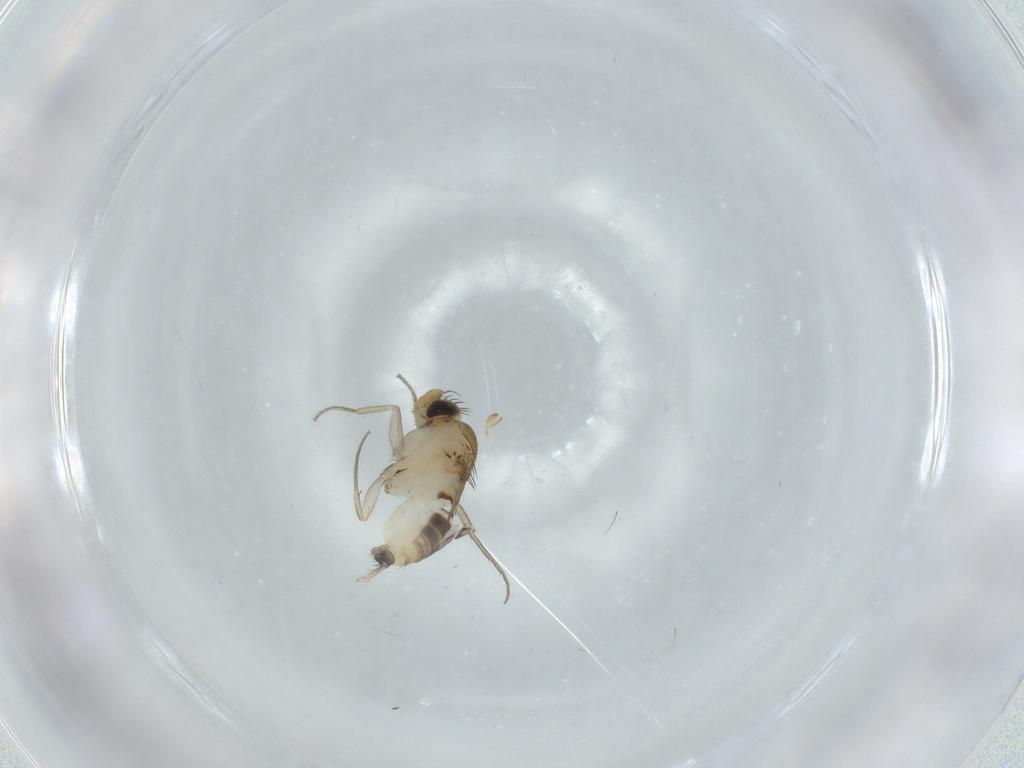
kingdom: Animalia
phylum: Arthropoda
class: Insecta
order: Diptera
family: Phoridae
